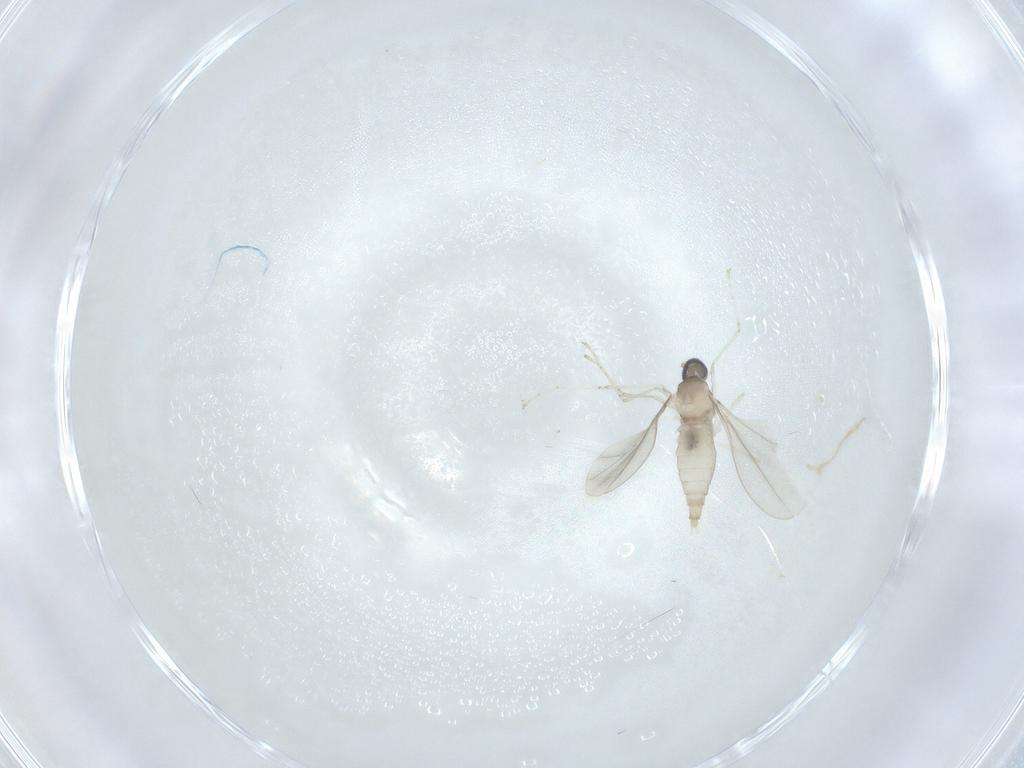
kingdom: Animalia
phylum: Arthropoda
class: Insecta
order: Diptera
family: Cecidomyiidae
